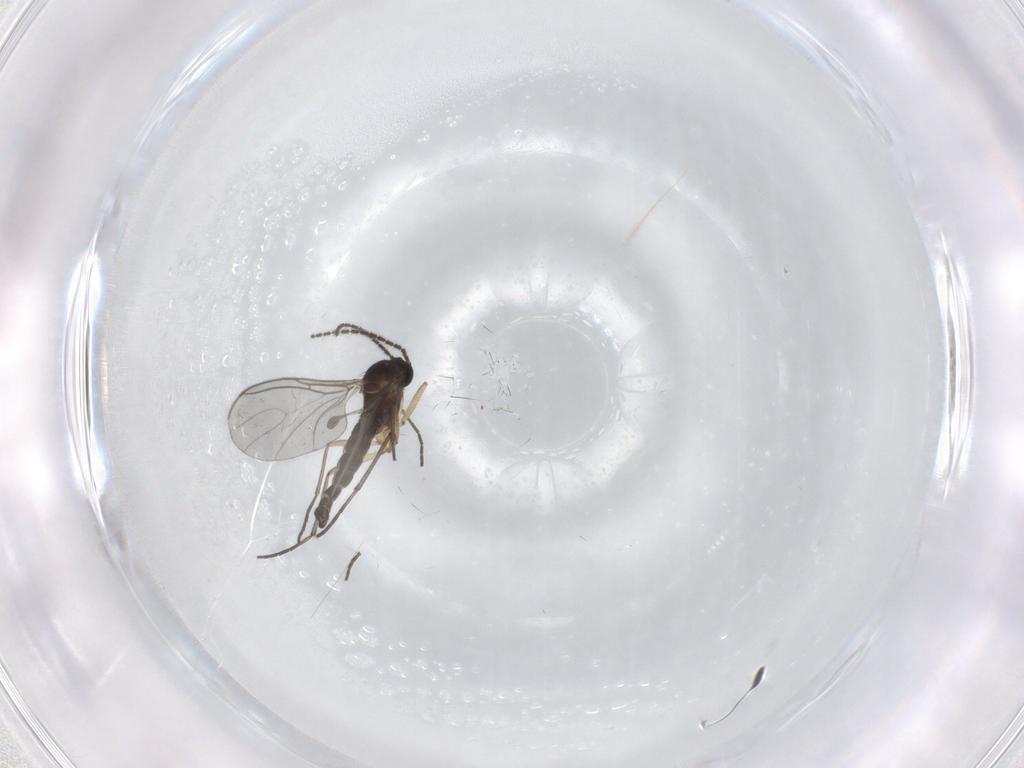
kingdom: Animalia
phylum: Arthropoda
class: Insecta
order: Diptera
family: Sciaridae
